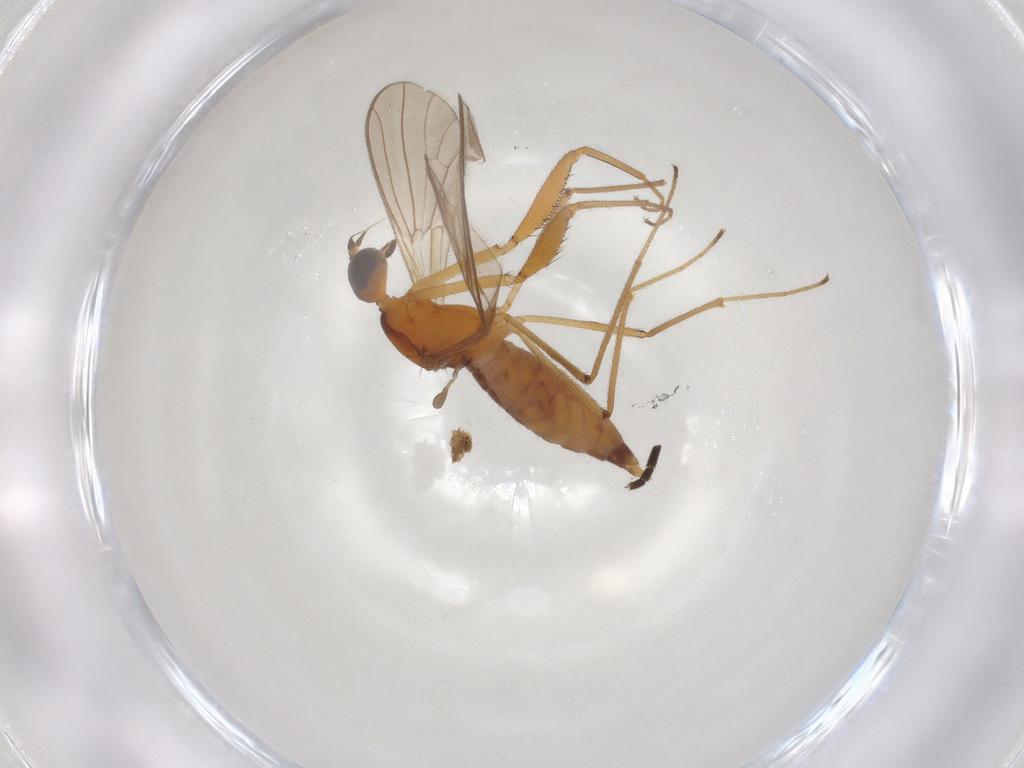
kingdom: Animalia
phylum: Arthropoda
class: Insecta
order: Diptera
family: Empididae
